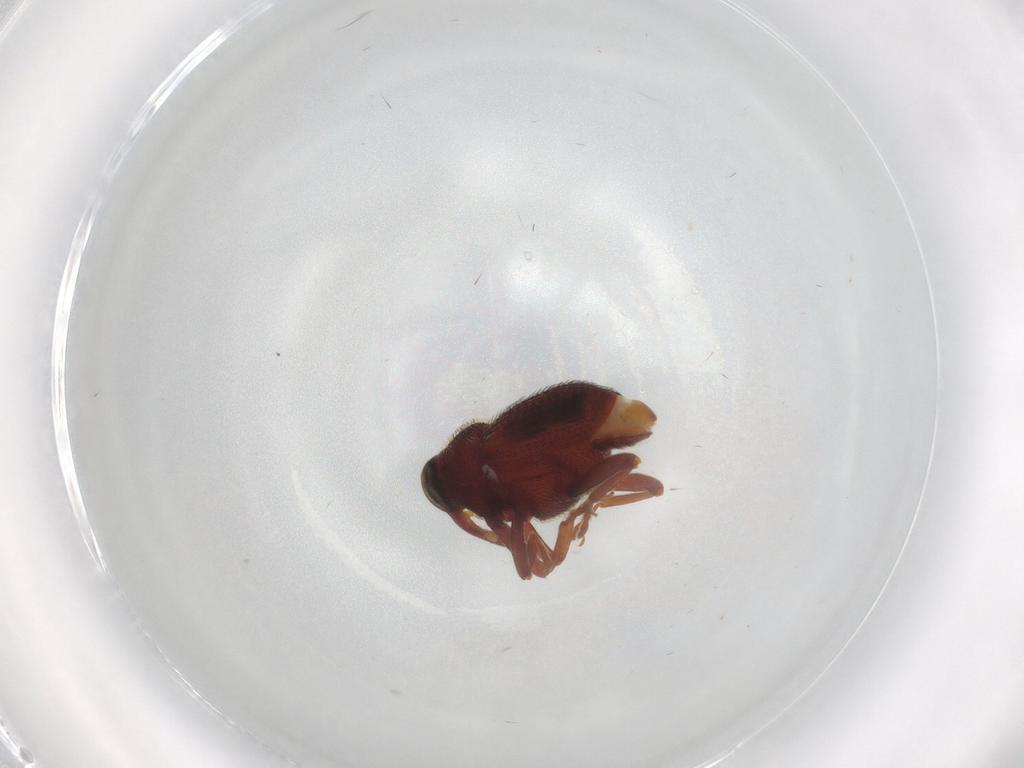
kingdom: Animalia
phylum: Arthropoda
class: Insecta
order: Coleoptera
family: Curculionidae
